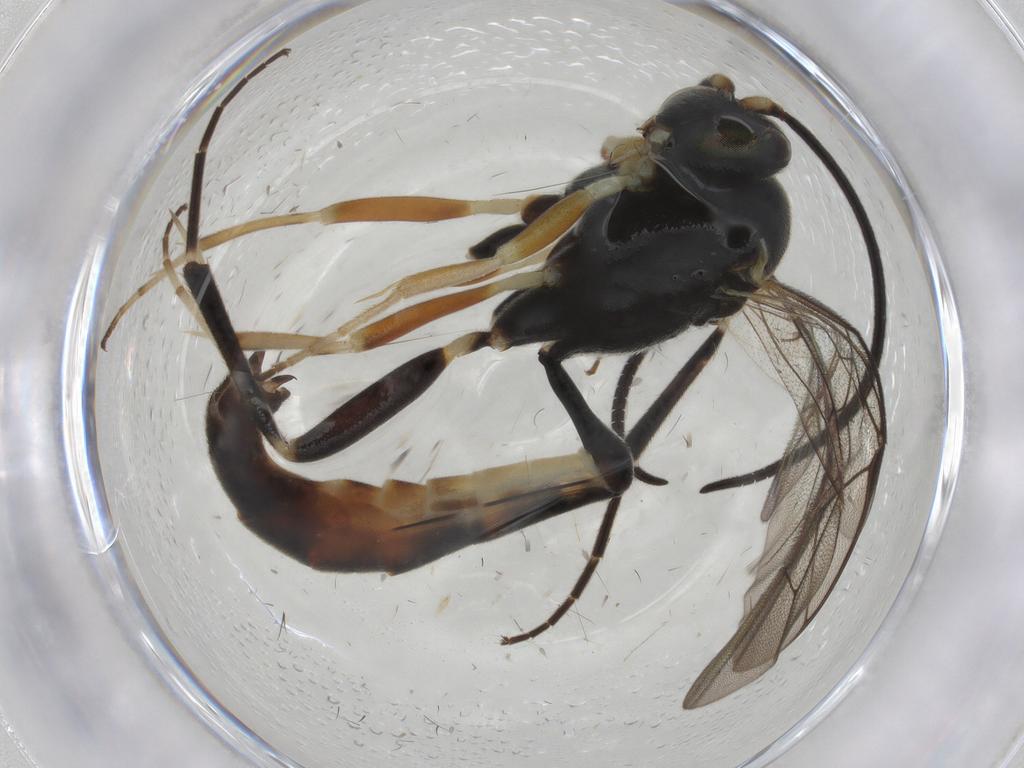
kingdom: Animalia
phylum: Arthropoda
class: Insecta
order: Hymenoptera
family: Ichneumonidae
